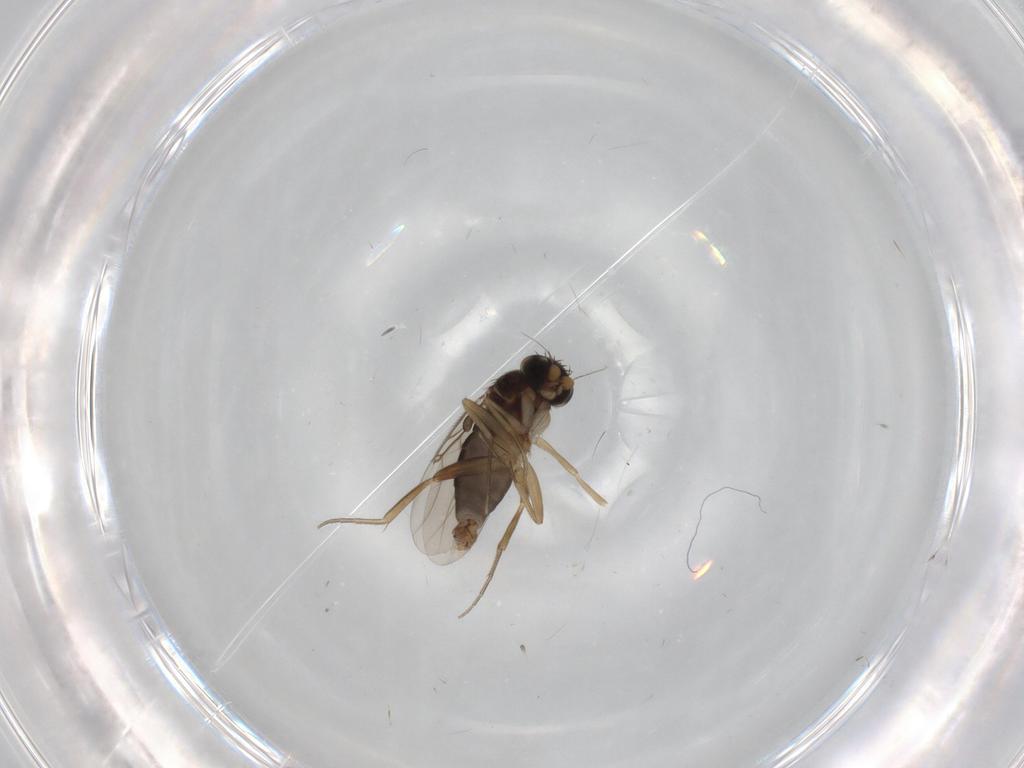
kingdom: Animalia
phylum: Arthropoda
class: Insecta
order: Diptera
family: Phoridae
